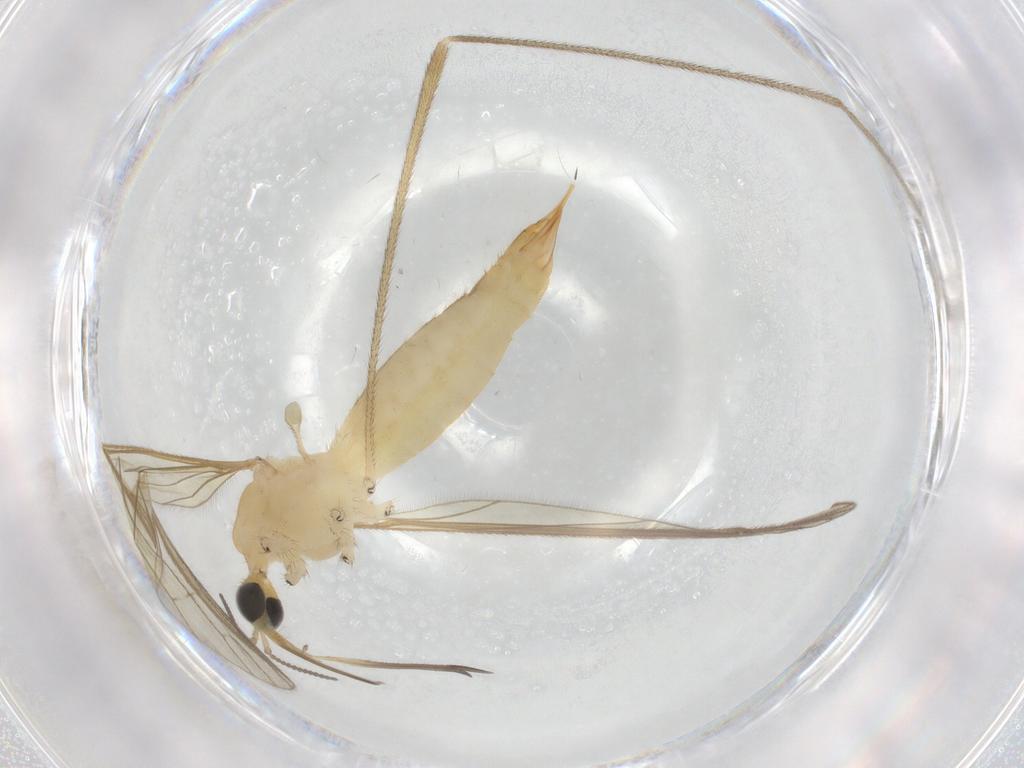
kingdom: Animalia
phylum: Arthropoda
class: Insecta
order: Diptera
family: Limoniidae
